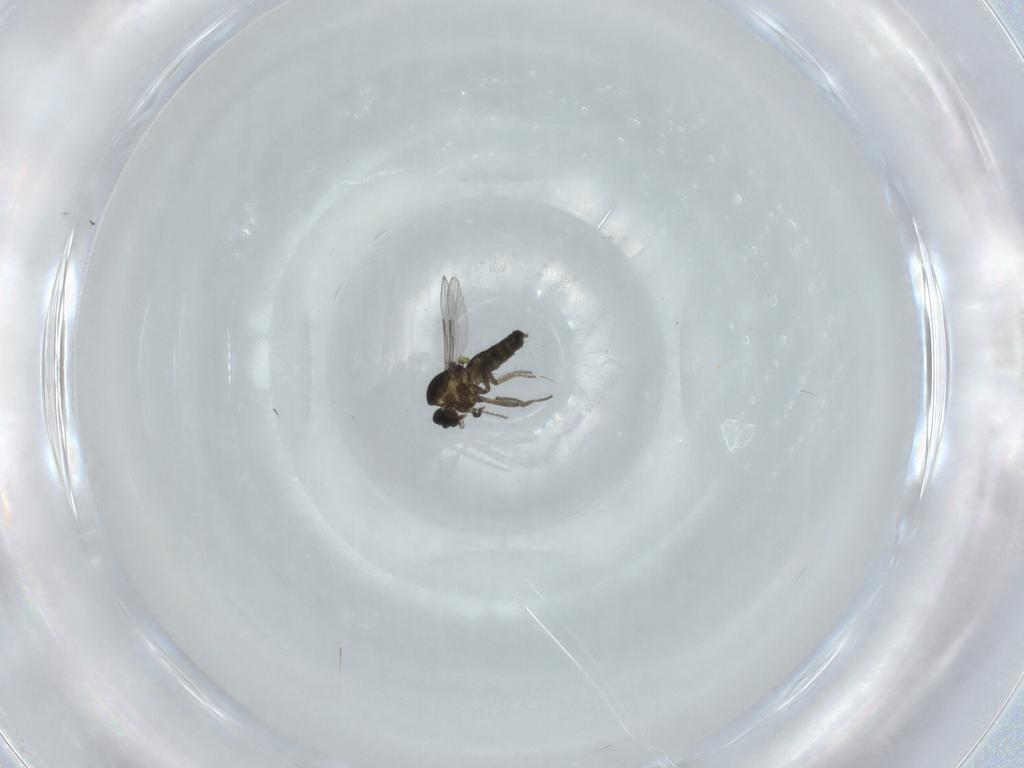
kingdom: Animalia
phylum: Arthropoda
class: Insecta
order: Diptera
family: Ceratopogonidae
